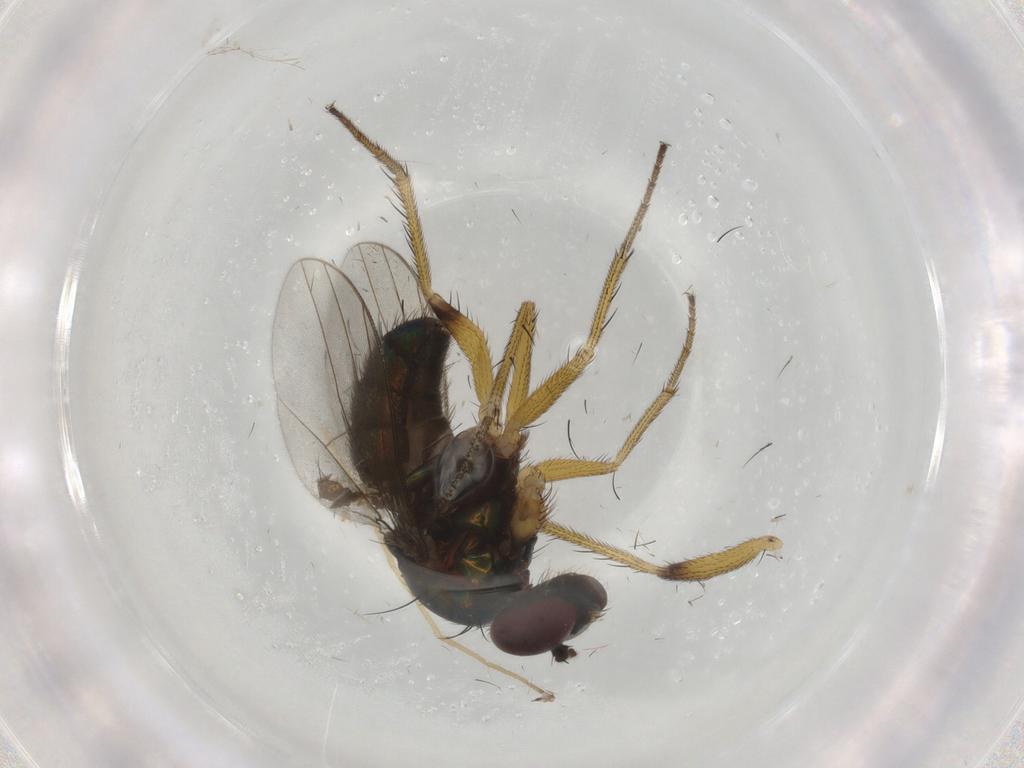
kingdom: Animalia
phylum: Arthropoda
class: Insecta
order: Diptera
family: Dolichopodidae
